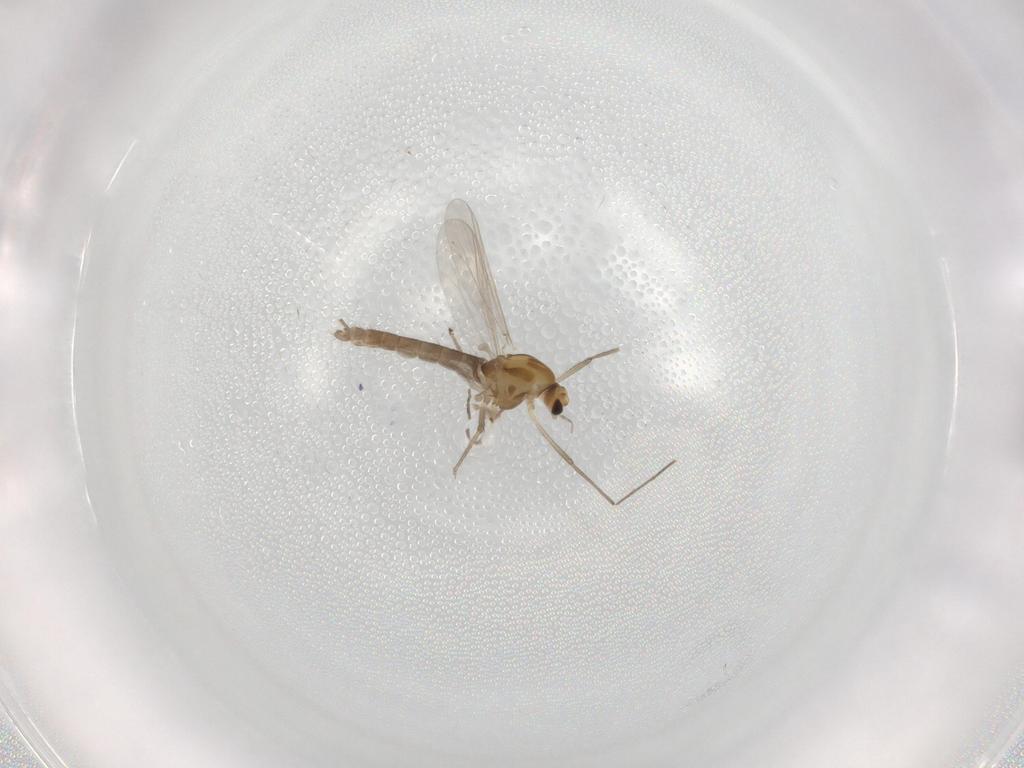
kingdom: Animalia
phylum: Arthropoda
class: Insecta
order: Diptera
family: Chironomidae
